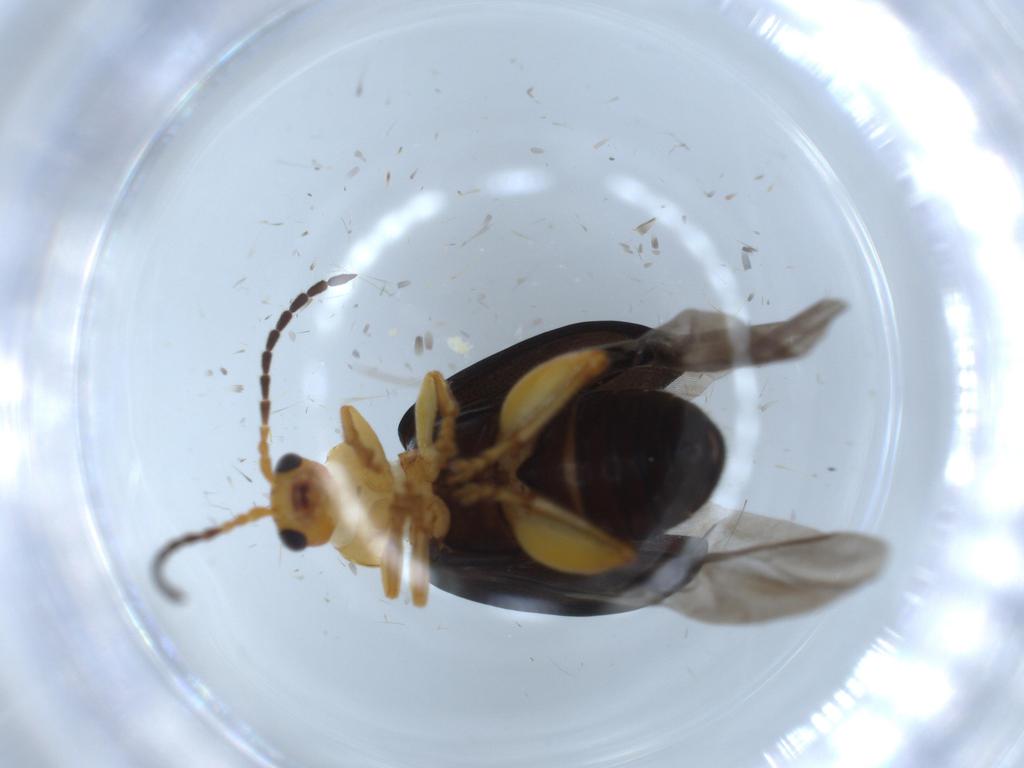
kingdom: Animalia
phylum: Arthropoda
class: Insecta
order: Coleoptera
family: Chrysomelidae
